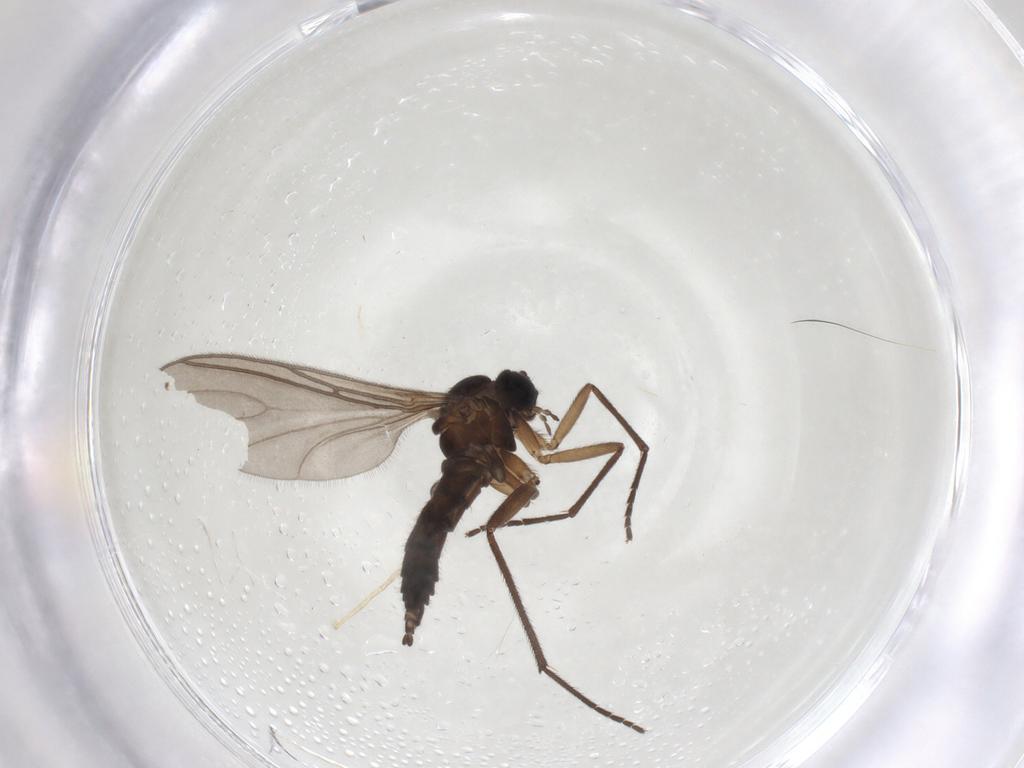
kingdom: Animalia
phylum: Arthropoda
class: Insecta
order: Diptera
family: Sciaridae
